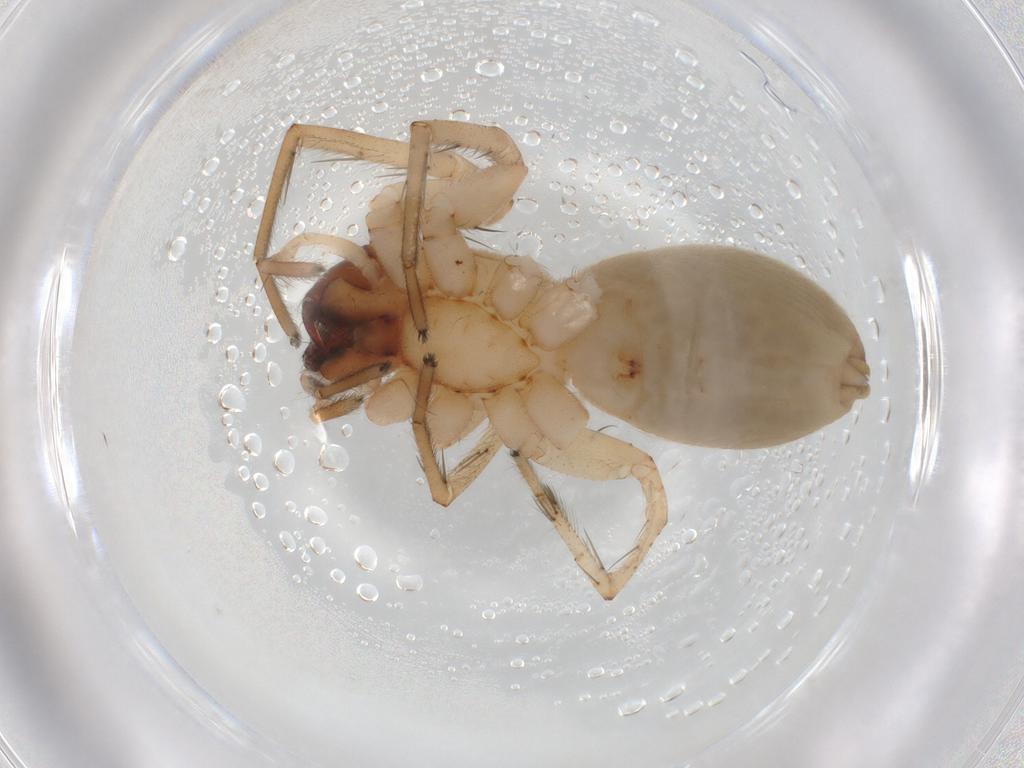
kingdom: Animalia
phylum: Arthropoda
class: Arachnida
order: Araneae
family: Anyphaenidae
